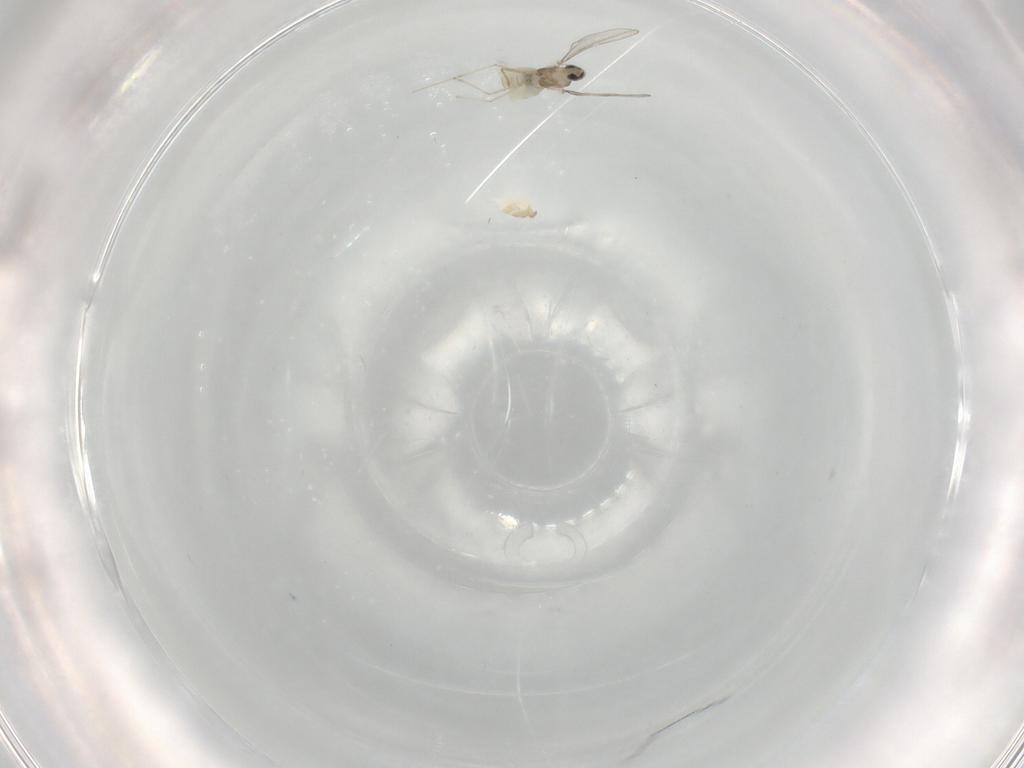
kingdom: Animalia
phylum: Arthropoda
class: Insecta
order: Diptera
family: Cecidomyiidae
